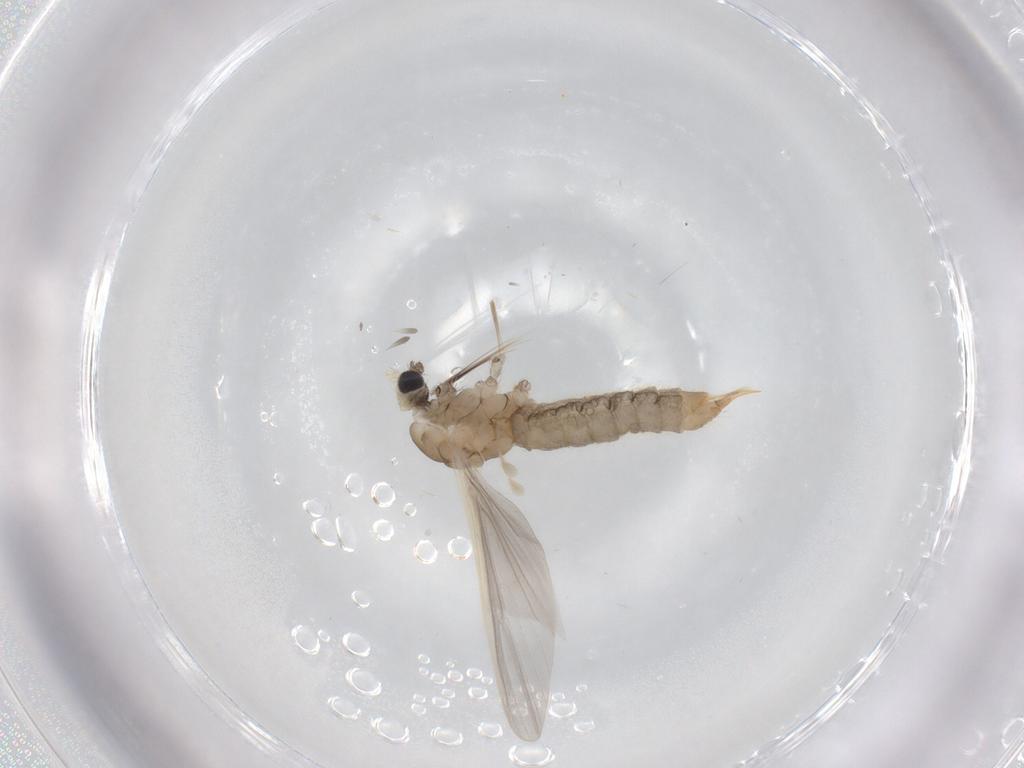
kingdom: Animalia
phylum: Arthropoda
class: Insecta
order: Diptera
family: Limoniidae
